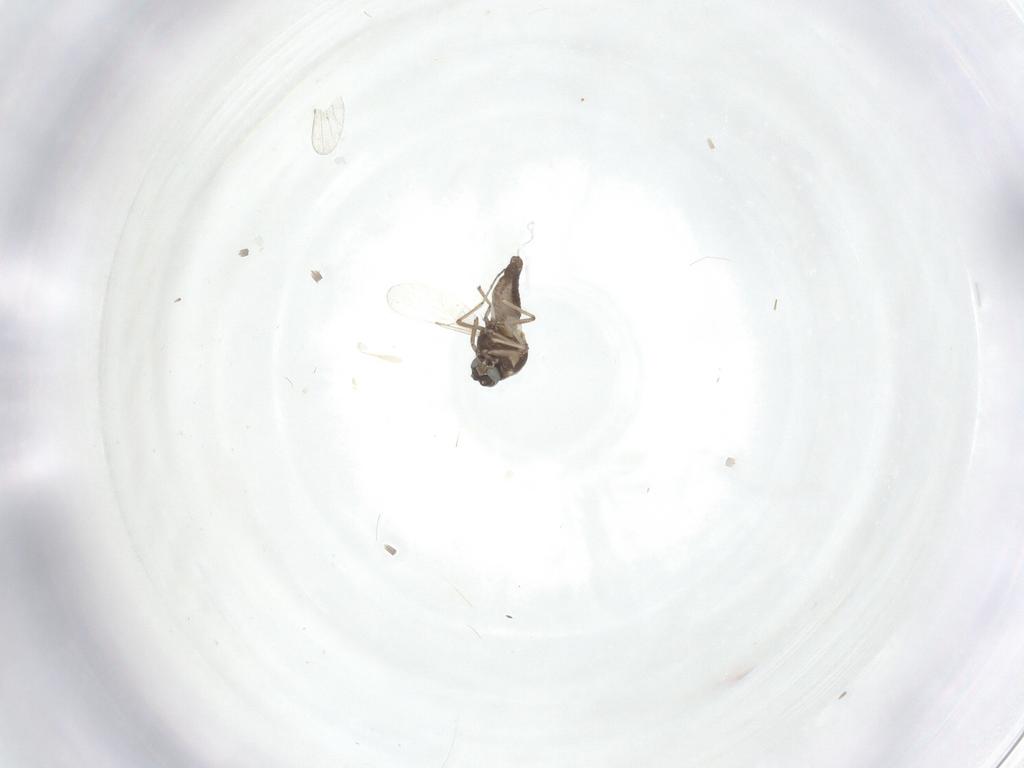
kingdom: Animalia
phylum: Arthropoda
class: Insecta
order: Diptera
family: Ceratopogonidae
